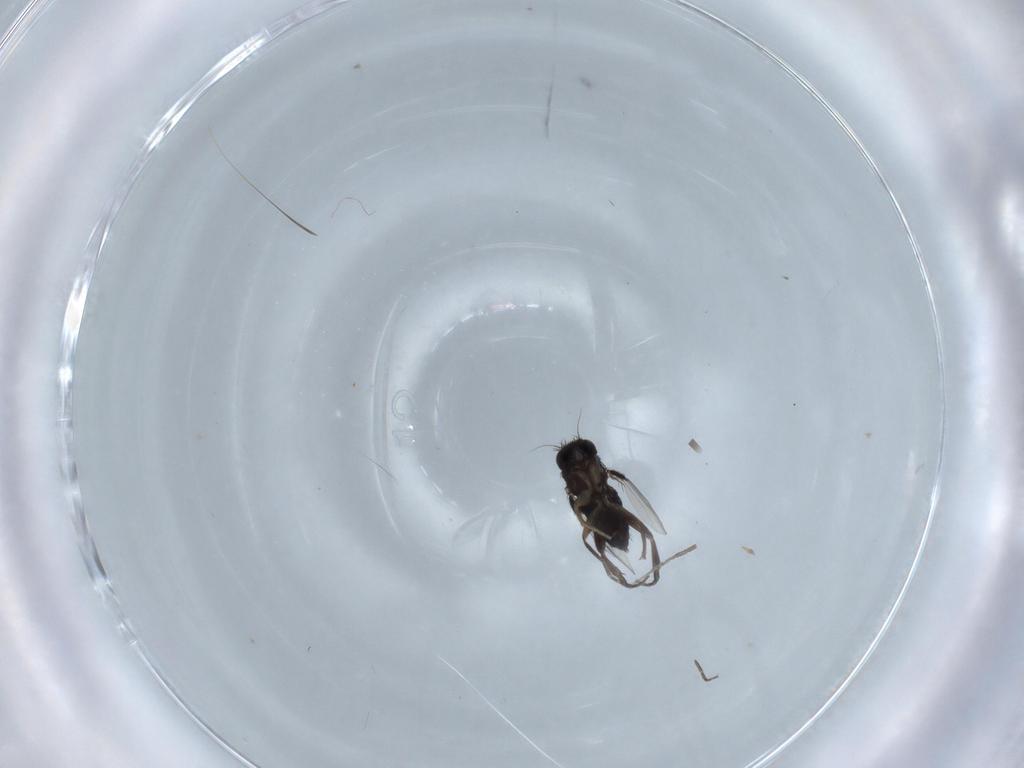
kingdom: Animalia
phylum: Arthropoda
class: Insecta
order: Diptera
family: Phoridae
